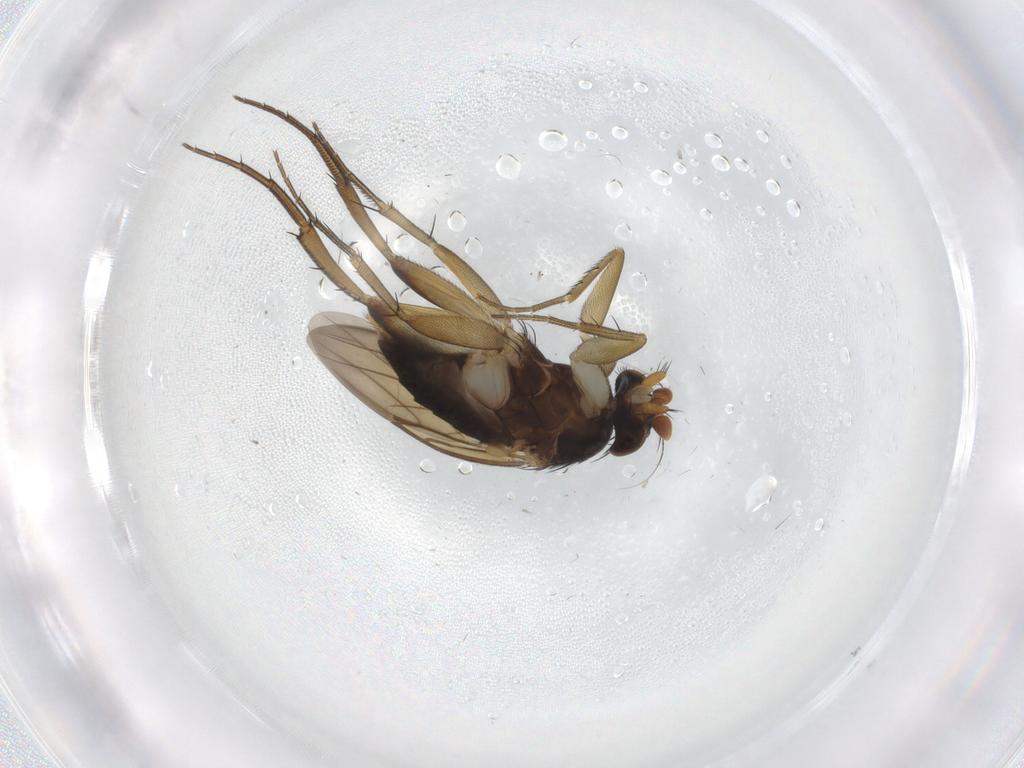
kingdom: Animalia
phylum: Arthropoda
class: Insecta
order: Diptera
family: Phoridae
